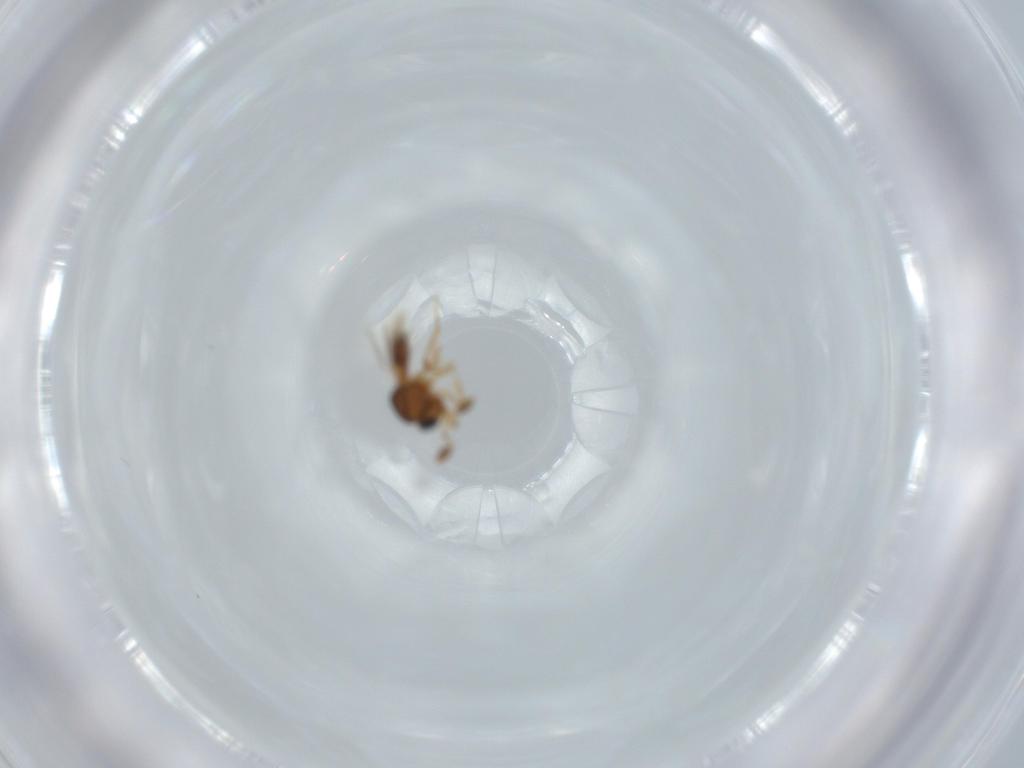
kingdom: Animalia
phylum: Arthropoda
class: Insecta
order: Hymenoptera
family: Scelionidae
